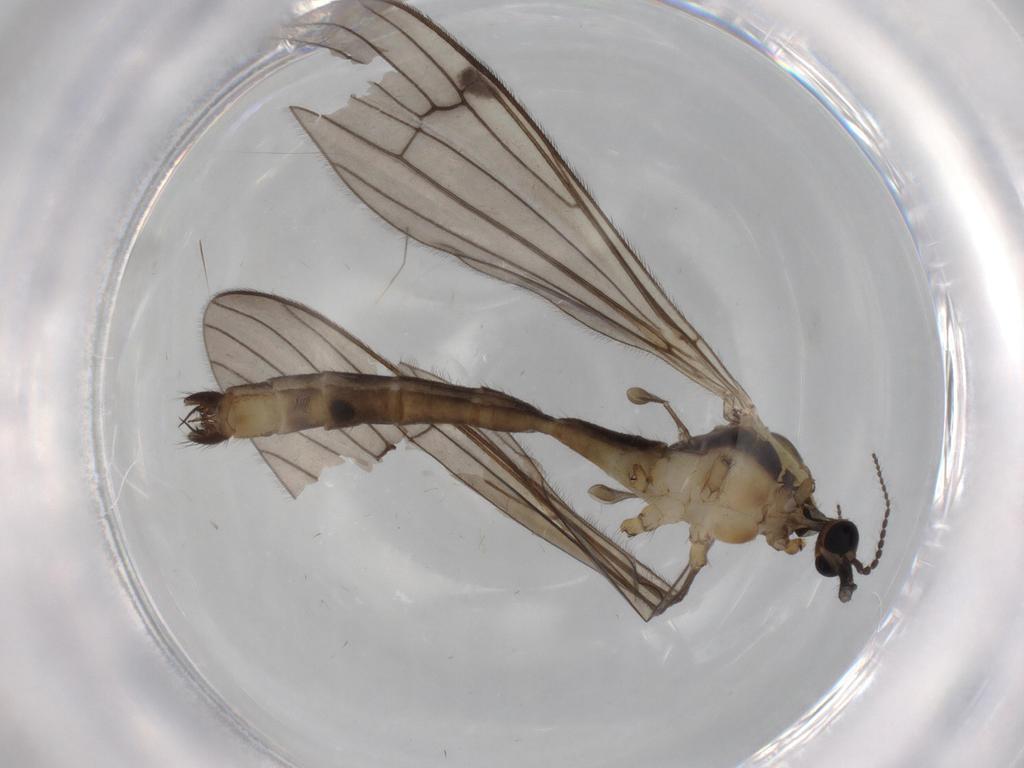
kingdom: Animalia
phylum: Arthropoda
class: Insecta
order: Diptera
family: Limoniidae
